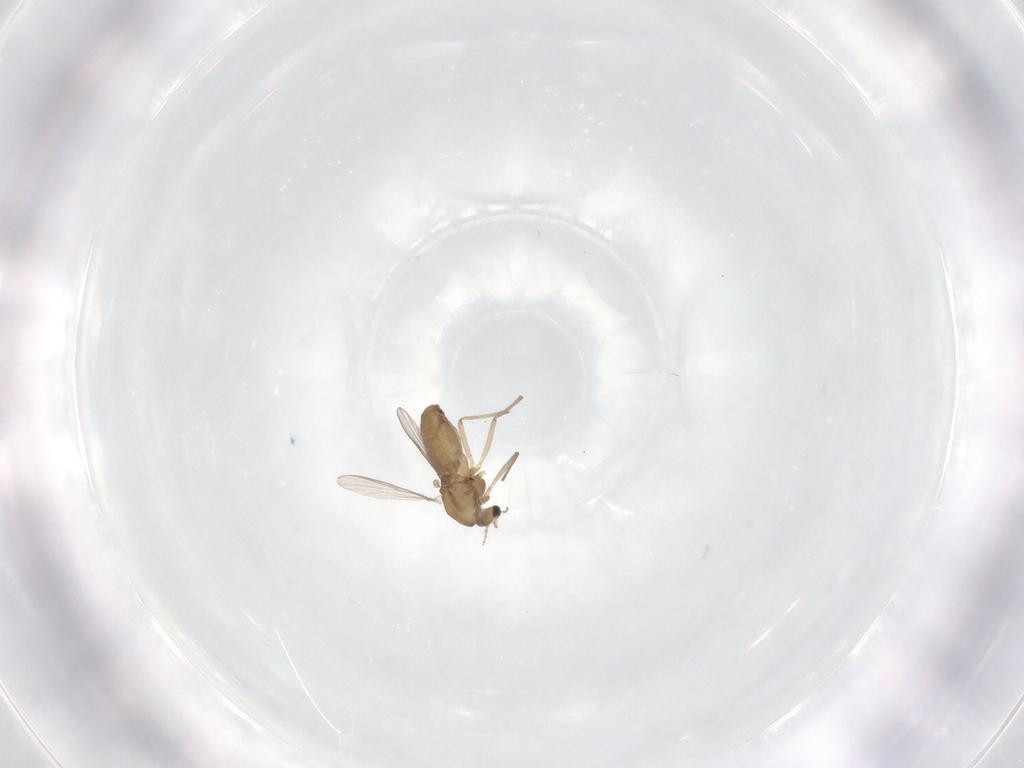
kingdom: Animalia
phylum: Arthropoda
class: Insecta
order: Diptera
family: Chironomidae
